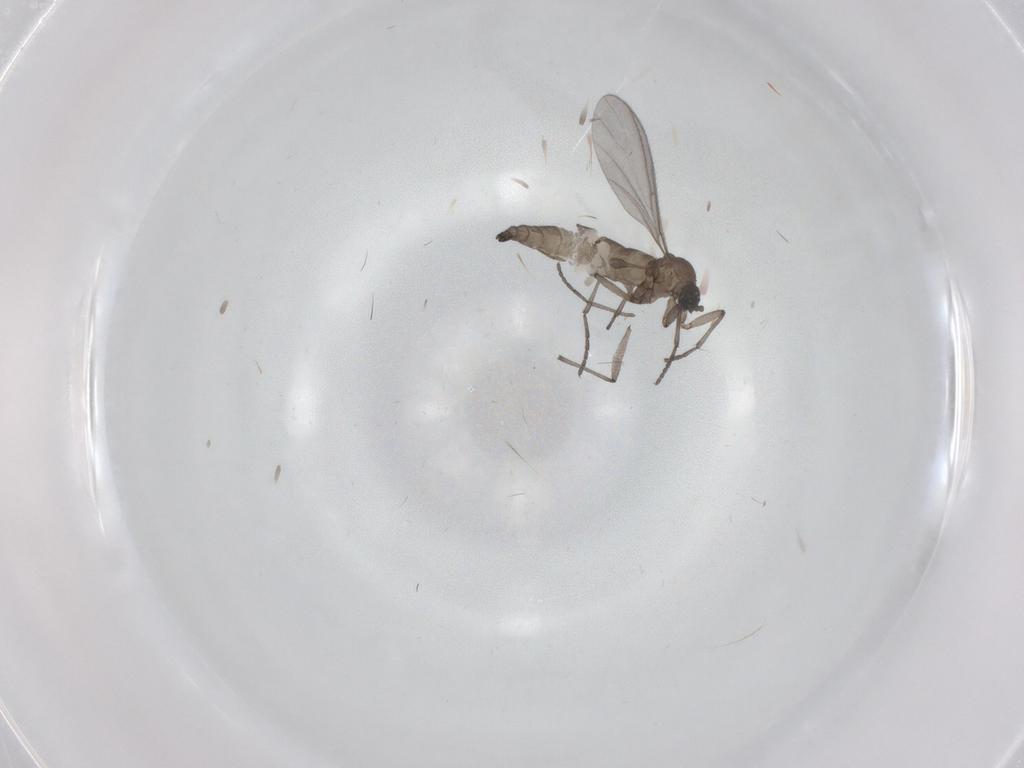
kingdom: Animalia
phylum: Arthropoda
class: Insecta
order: Diptera
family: Sciaridae
